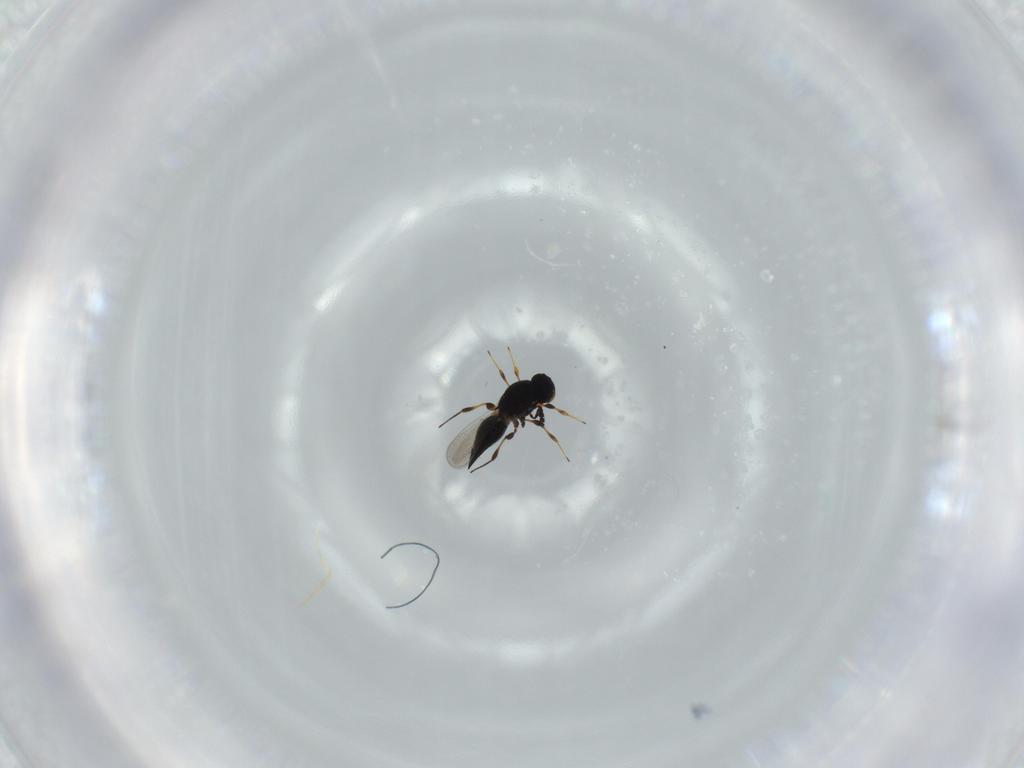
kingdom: Animalia
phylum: Arthropoda
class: Insecta
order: Hymenoptera
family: Platygastridae
